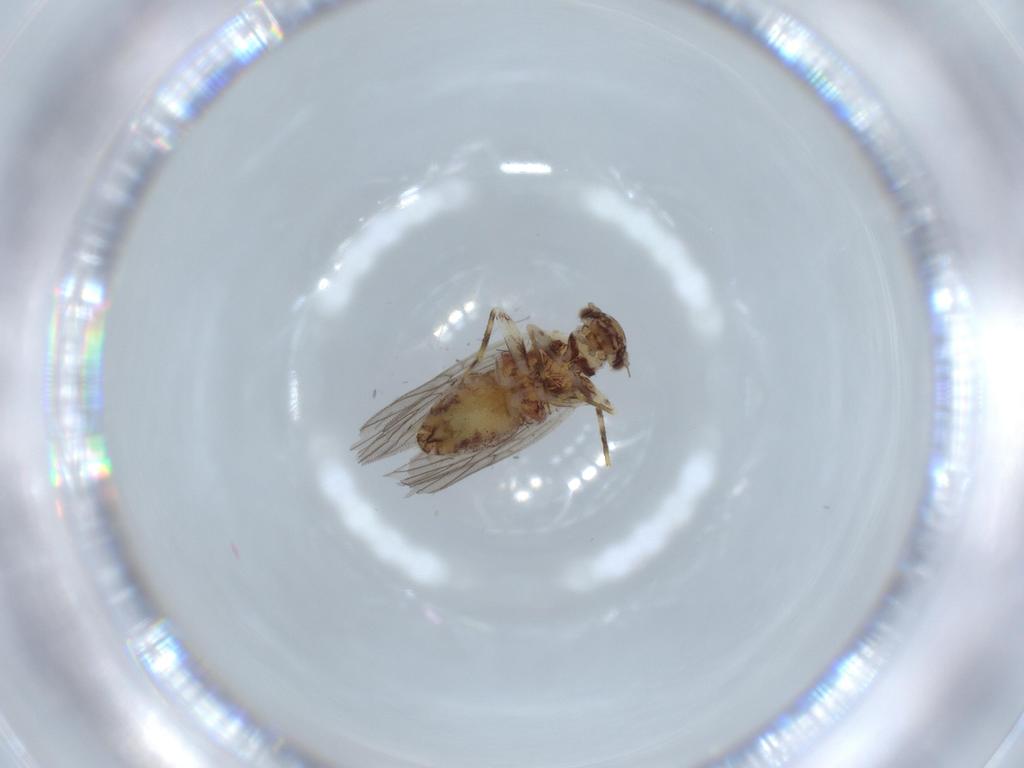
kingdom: Animalia
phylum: Arthropoda
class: Insecta
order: Psocodea
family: Lepidopsocidae
